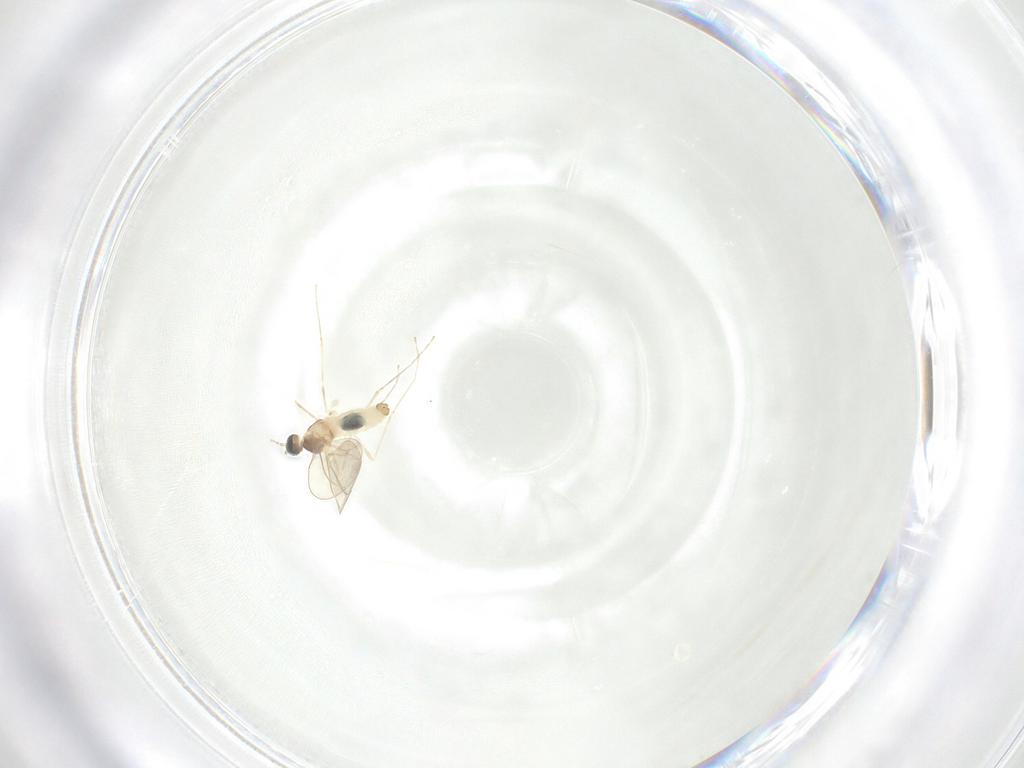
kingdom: Animalia
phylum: Arthropoda
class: Insecta
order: Diptera
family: Cecidomyiidae
